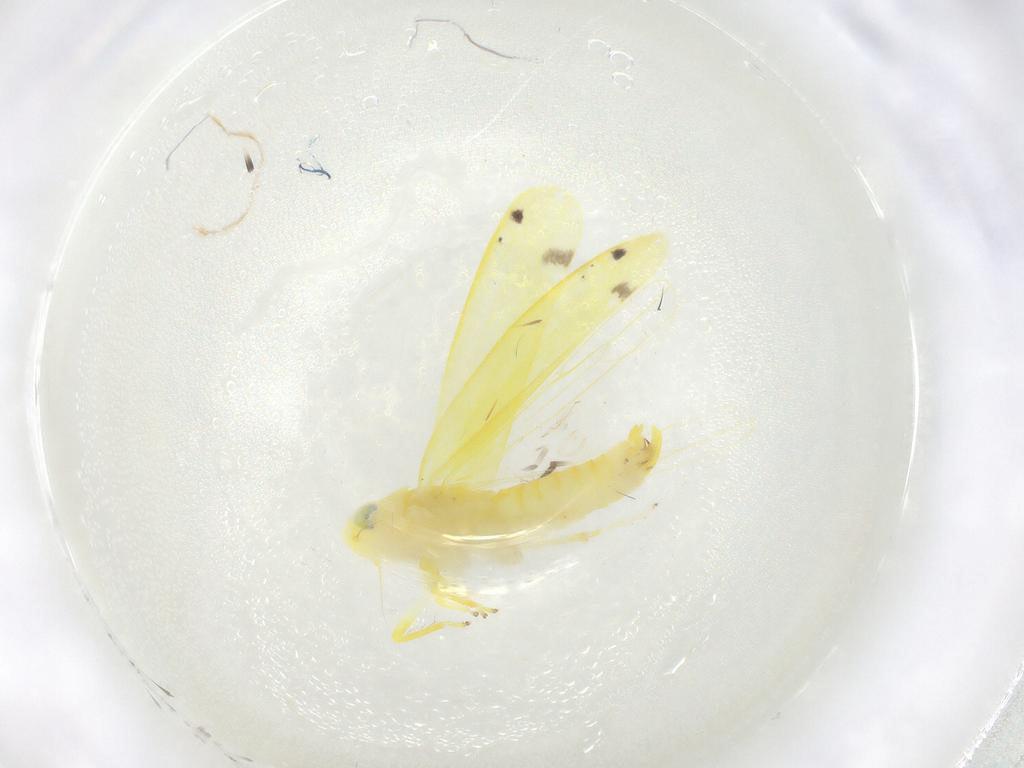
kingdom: Animalia
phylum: Arthropoda
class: Insecta
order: Hemiptera
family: Cicadellidae
